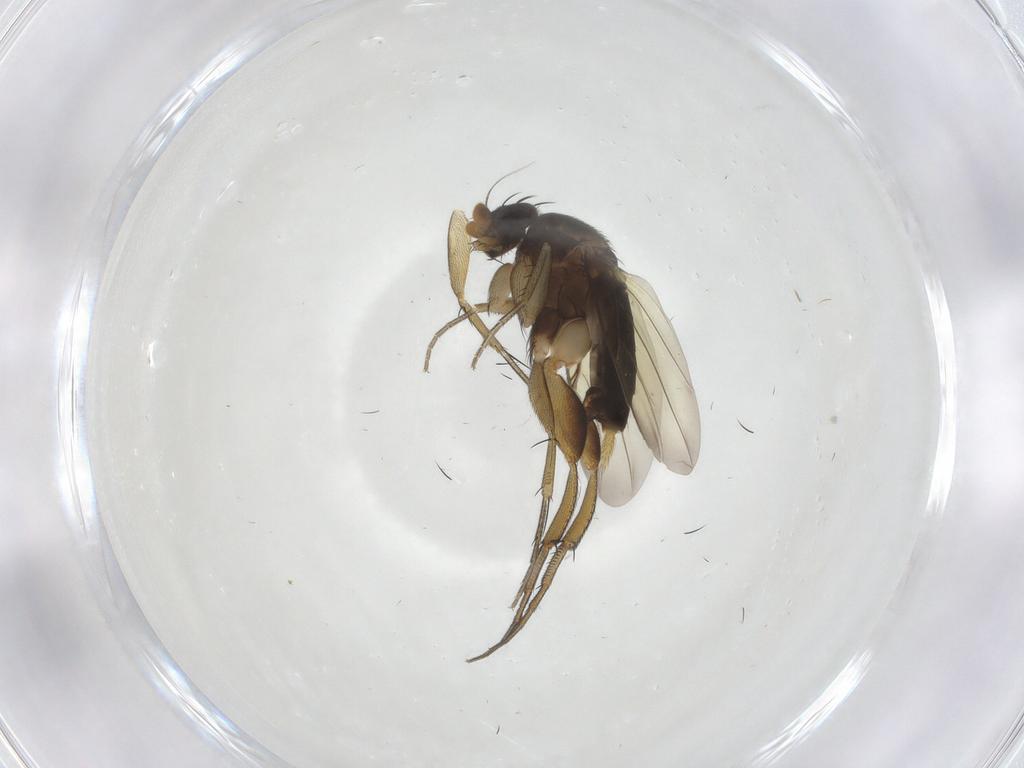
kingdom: Animalia
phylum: Arthropoda
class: Insecta
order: Diptera
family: Phoridae
